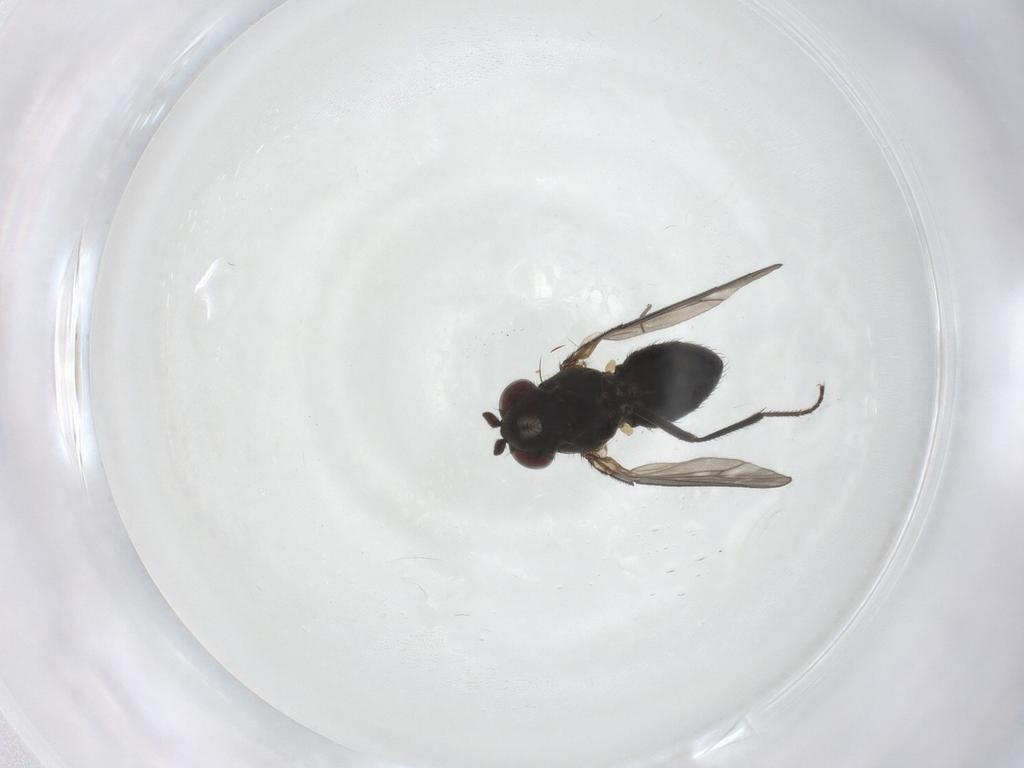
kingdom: Animalia
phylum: Arthropoda
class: Insecta
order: Diptera
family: Ephydridae
